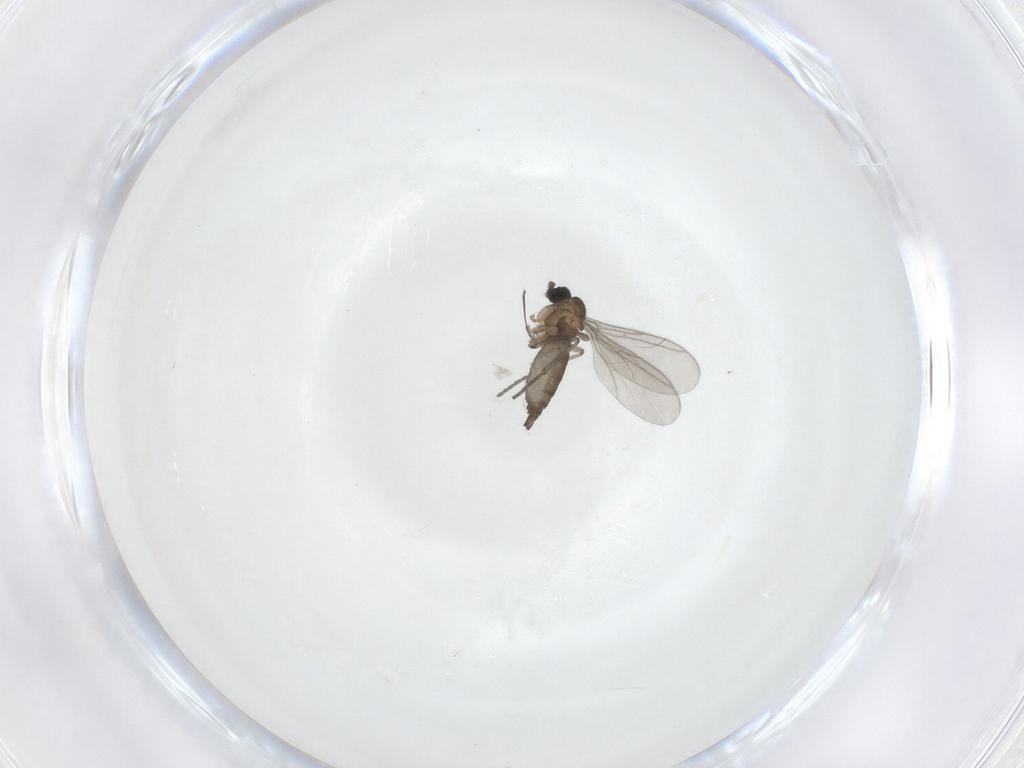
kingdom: Animalia
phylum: Arthropoda
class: Insecta
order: Diptera
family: Sciaridae
